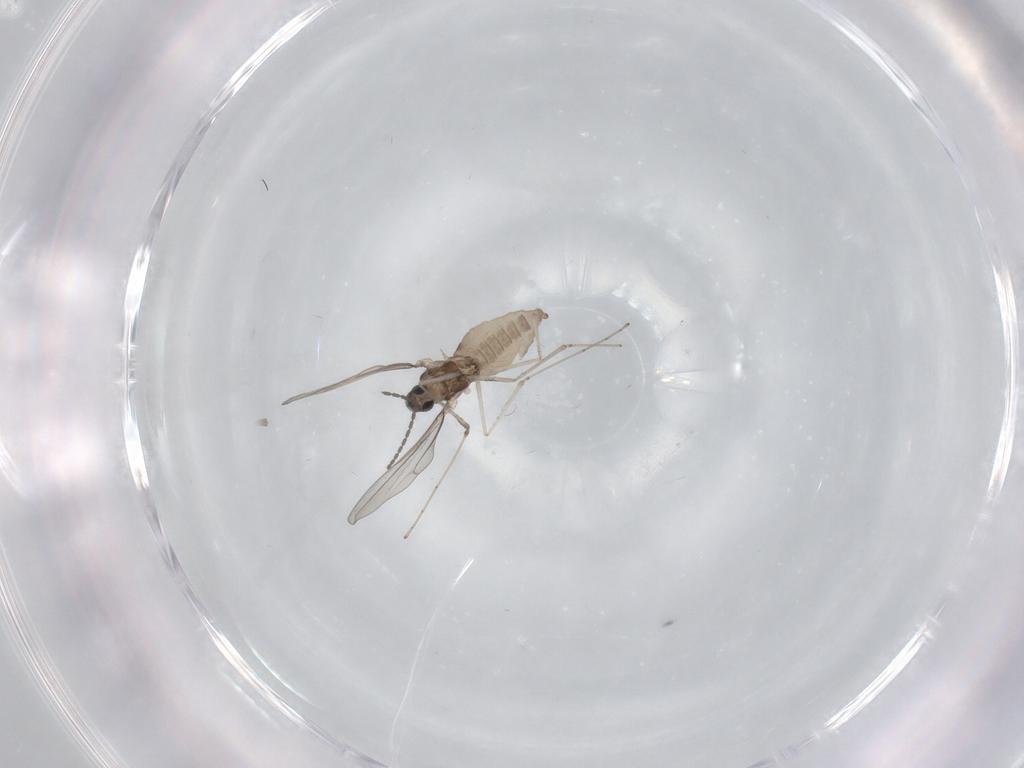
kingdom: Animalia
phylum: Arthropoda
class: Insecta
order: Diptera
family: Cecidomyiidae
